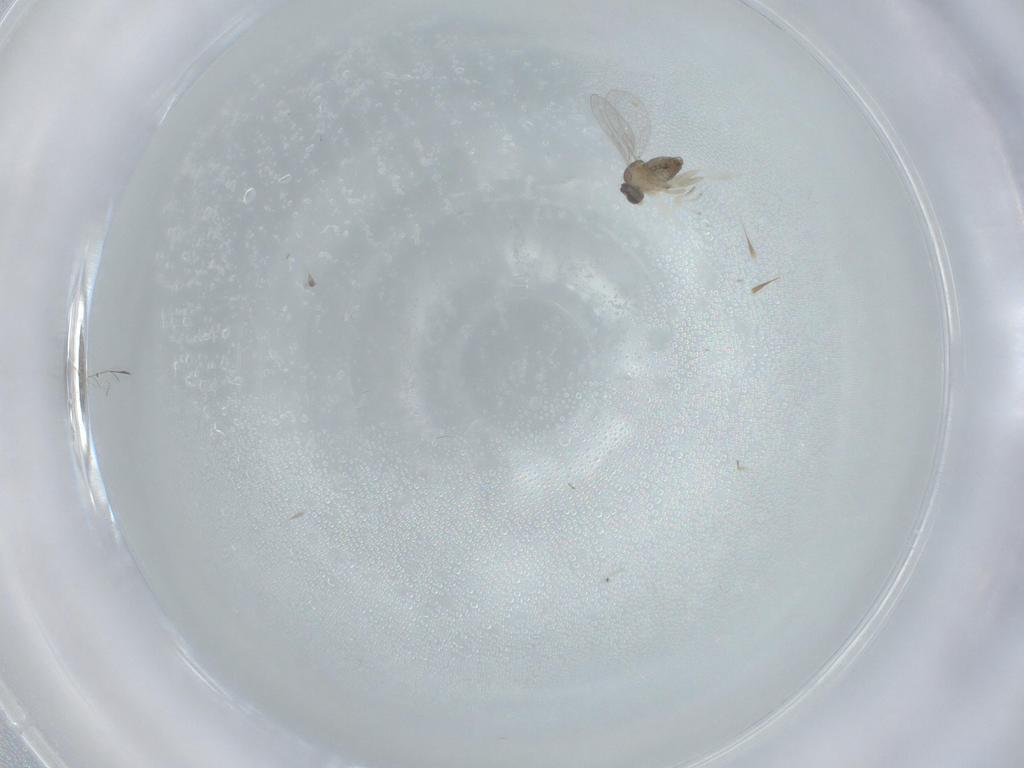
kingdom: Animalia
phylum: Arthropoda
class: Insecta
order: Diptera
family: Cecidomyiidae
